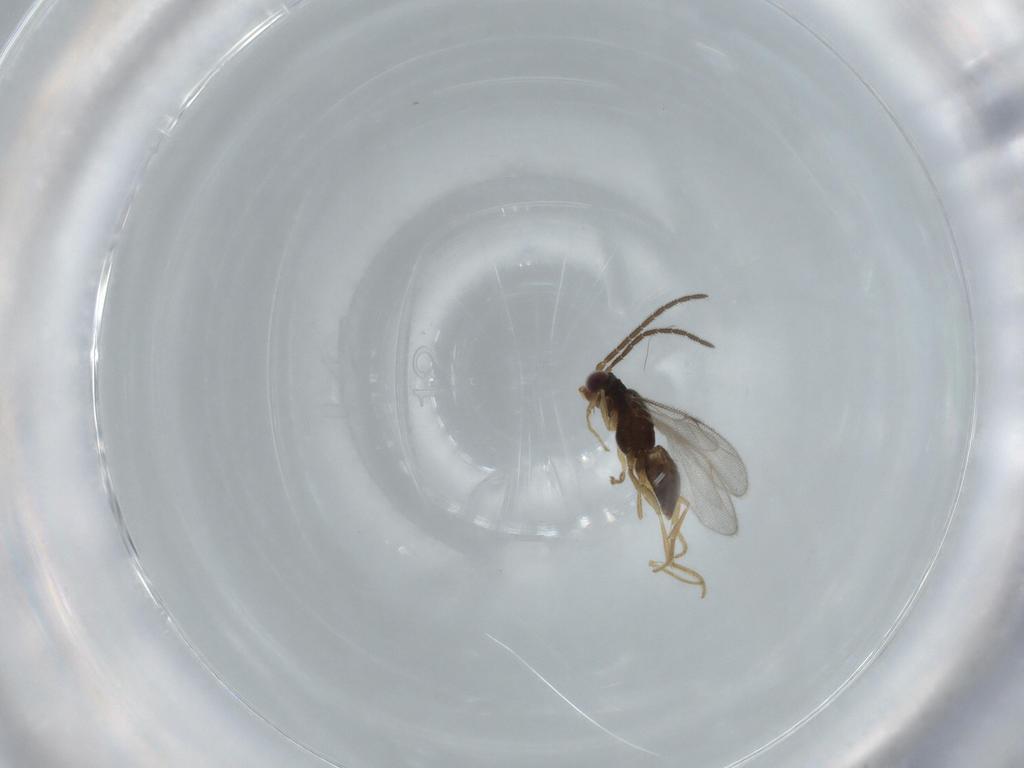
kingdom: Animalia
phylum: Arthropoda
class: Insecta
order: Hymenoptera
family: Dryinidae
